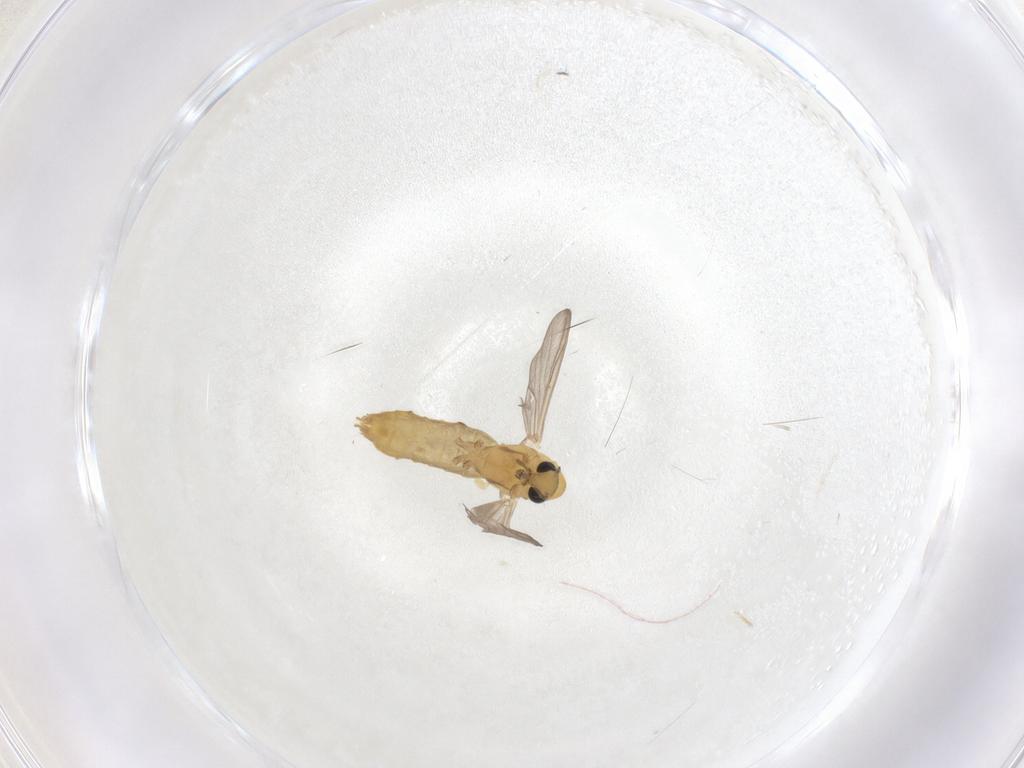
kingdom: Animalia
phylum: Arthropoda
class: Insecta
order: Diptera
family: Chironomidae
